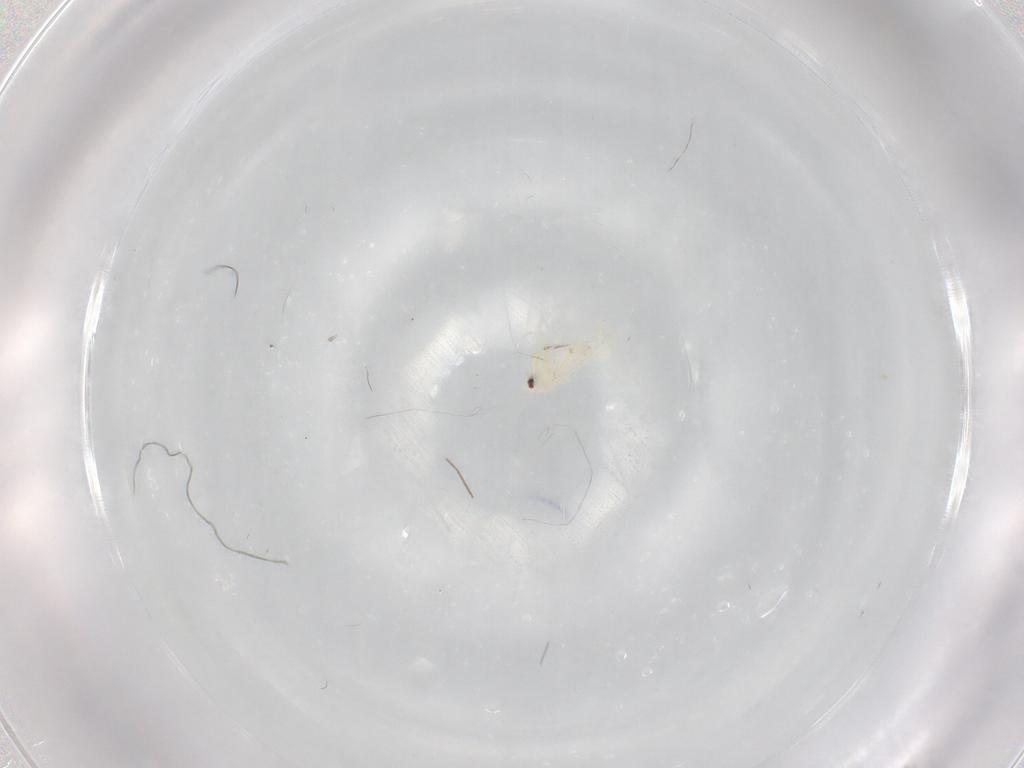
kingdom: Animalia
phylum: Arthropoda
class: Insecta
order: Hemiptera
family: Aleyrodidae
